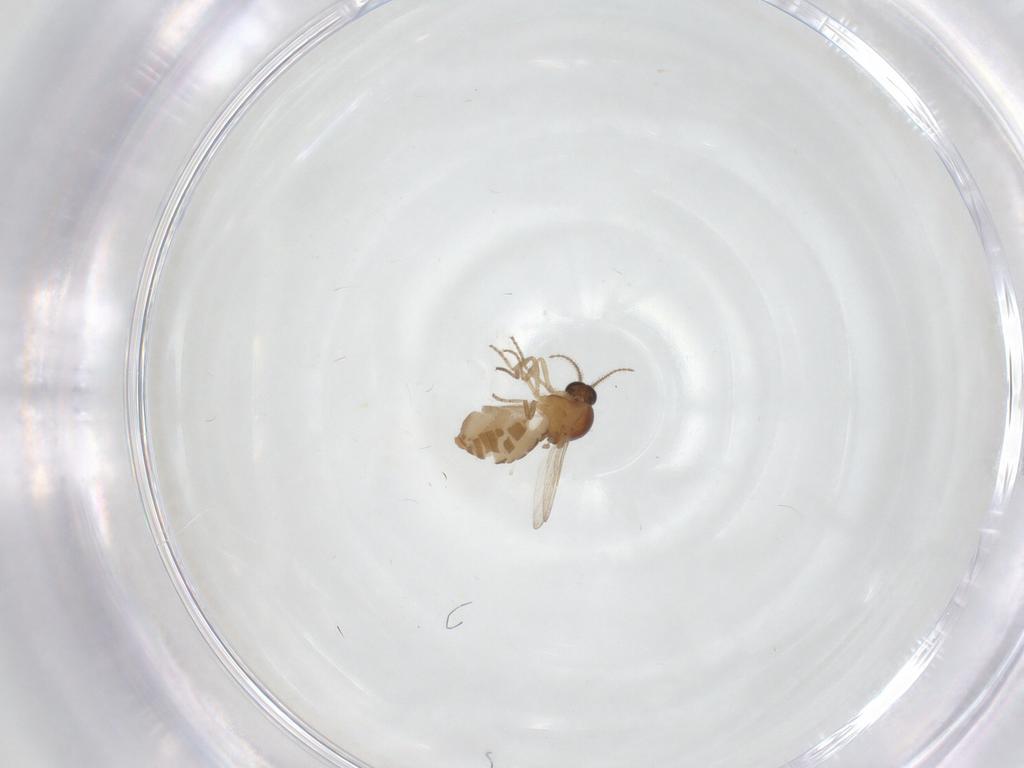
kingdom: Animalia
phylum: Arthropoda
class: Insecta
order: Diptera
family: Ceratopogonidae
